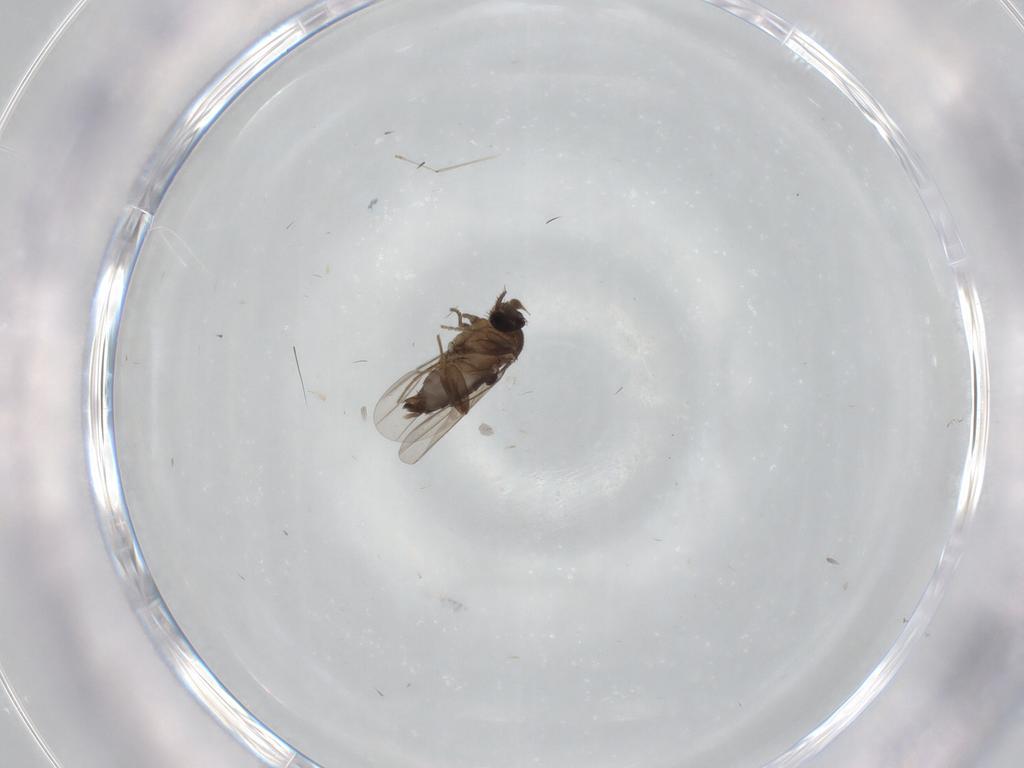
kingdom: Animalia
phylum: Arthropoda
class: Insecta
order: Diptera
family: Phoridae
